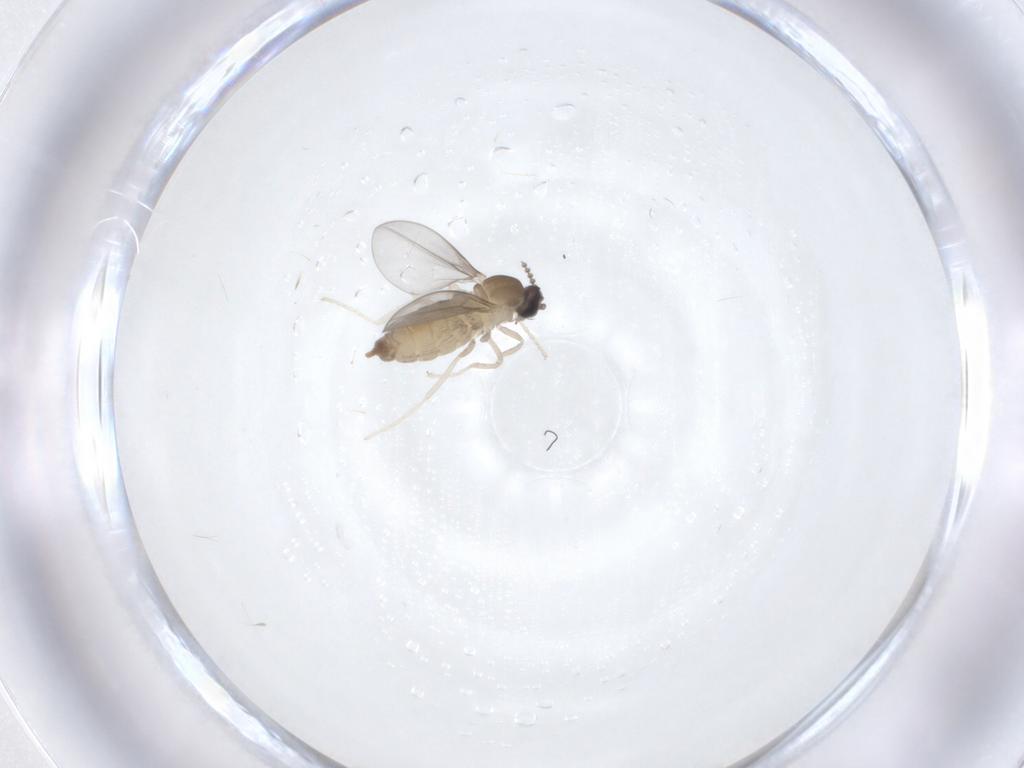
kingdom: Animalia
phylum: Arthropoda
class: Insecta
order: Diptera
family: Cecidomyiidae
